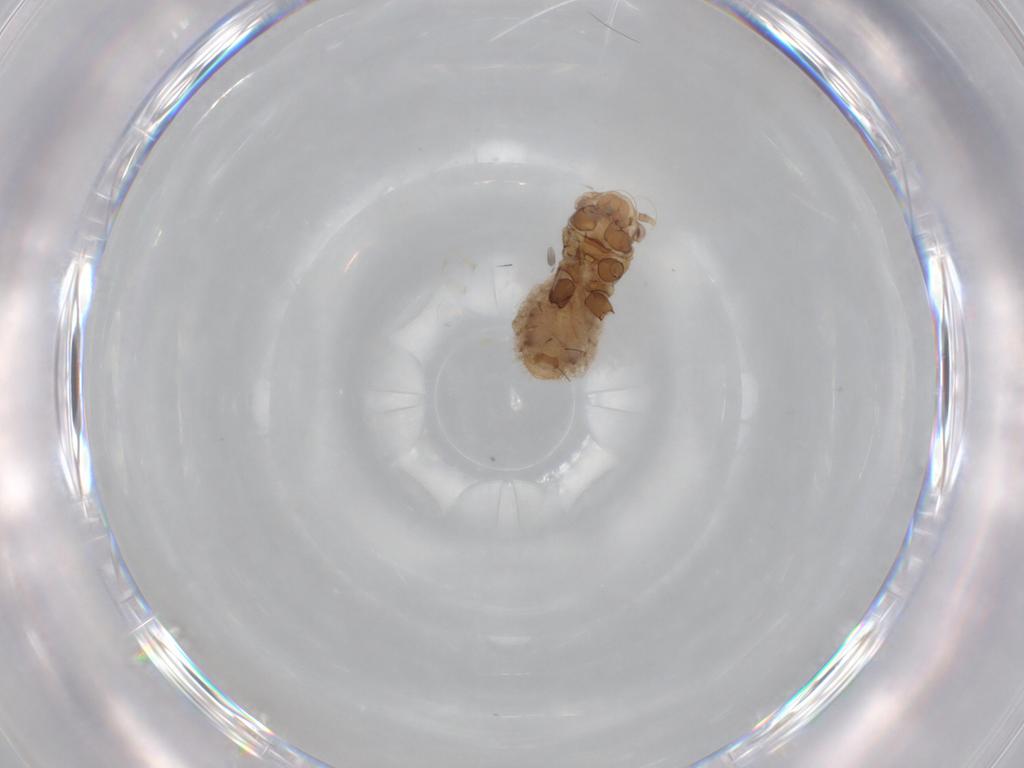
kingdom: Animalia
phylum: Arthropoda
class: Insecta
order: Hemiptera
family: Aphididae
